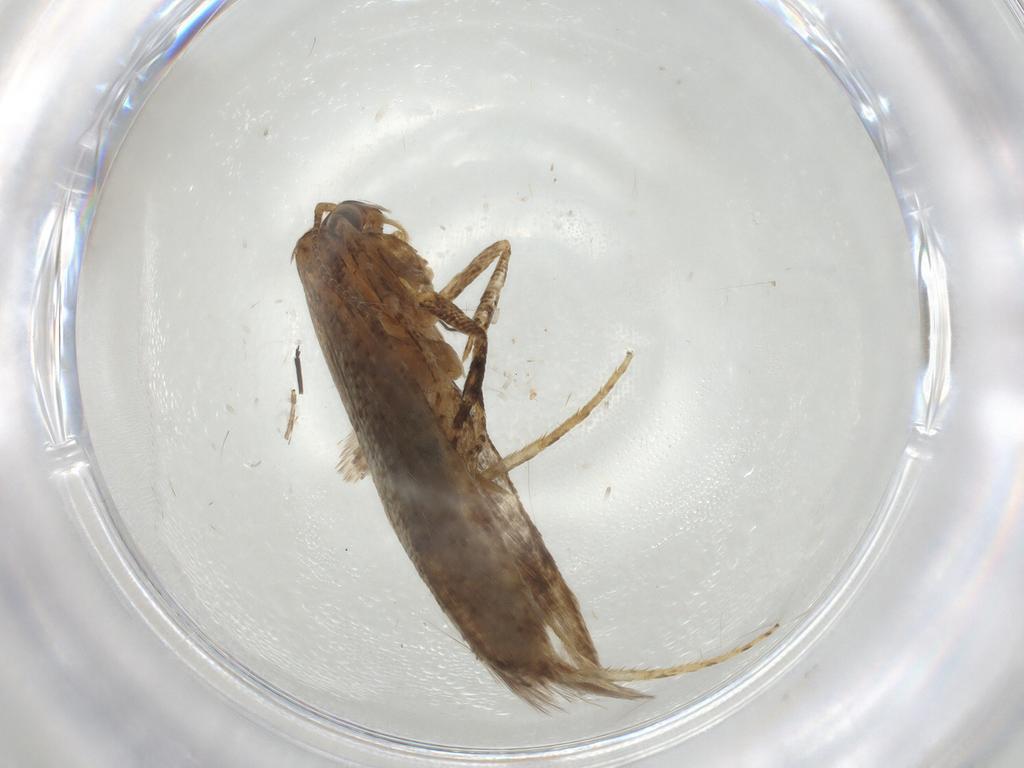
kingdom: Animalia
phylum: Arthropoda
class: Insecta
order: Lepidoptera
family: Gelechiidae
